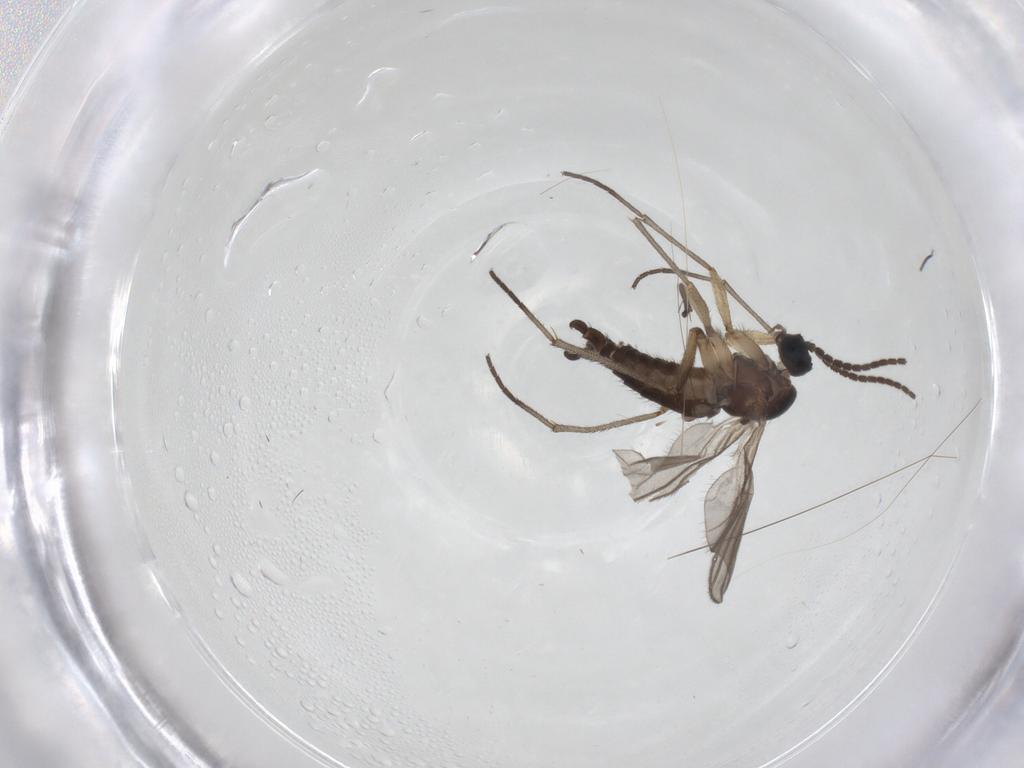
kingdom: Animalia
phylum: Arthropoda
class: Insecta
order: Diptera
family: Sciaridae
